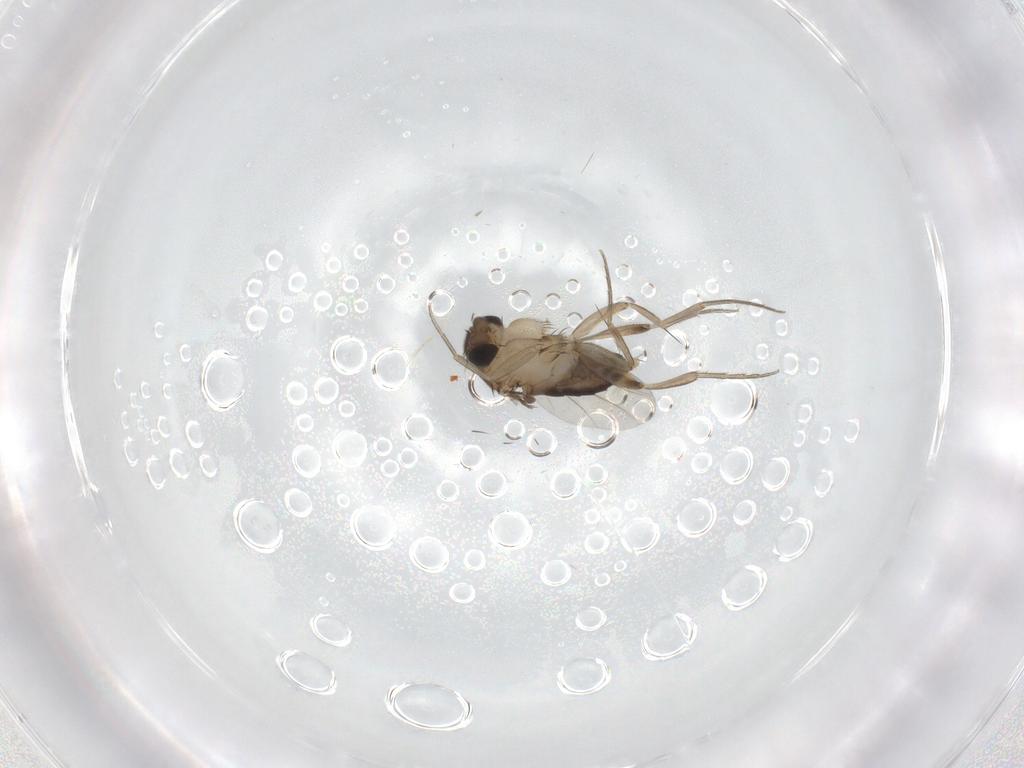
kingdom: Animalia
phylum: Arthropoda
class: Insecta
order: Diptera
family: Phoridae
